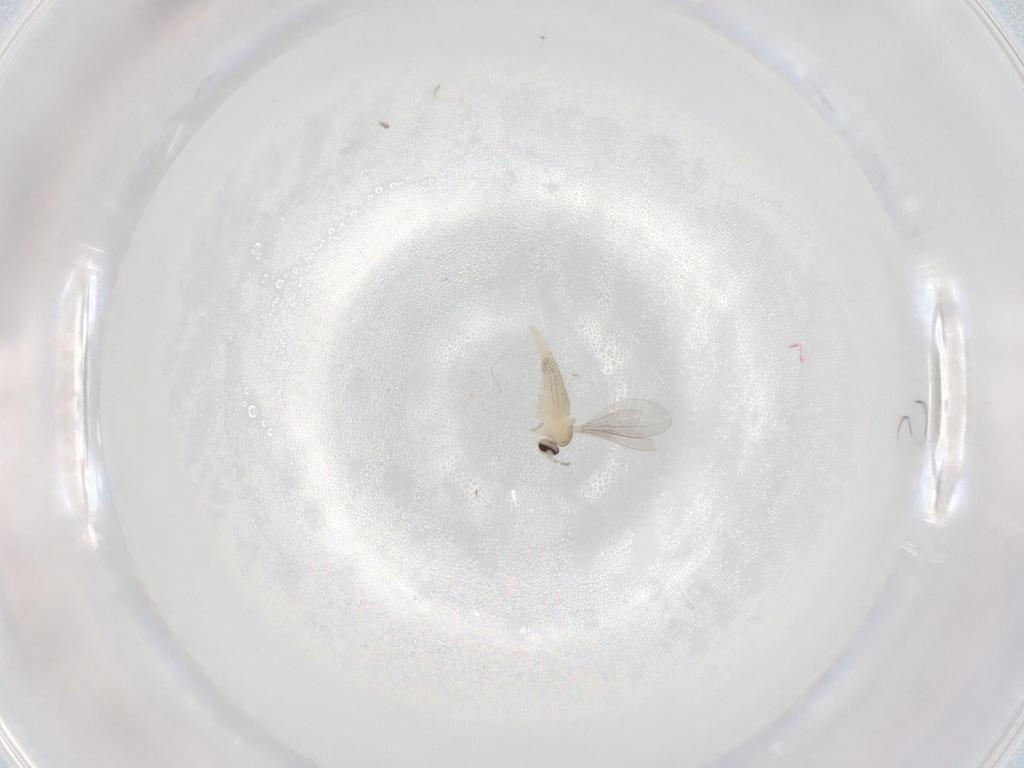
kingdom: Animalia
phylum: Arthropoda
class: Insecta
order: Diptera
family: Cecidomyiidae
